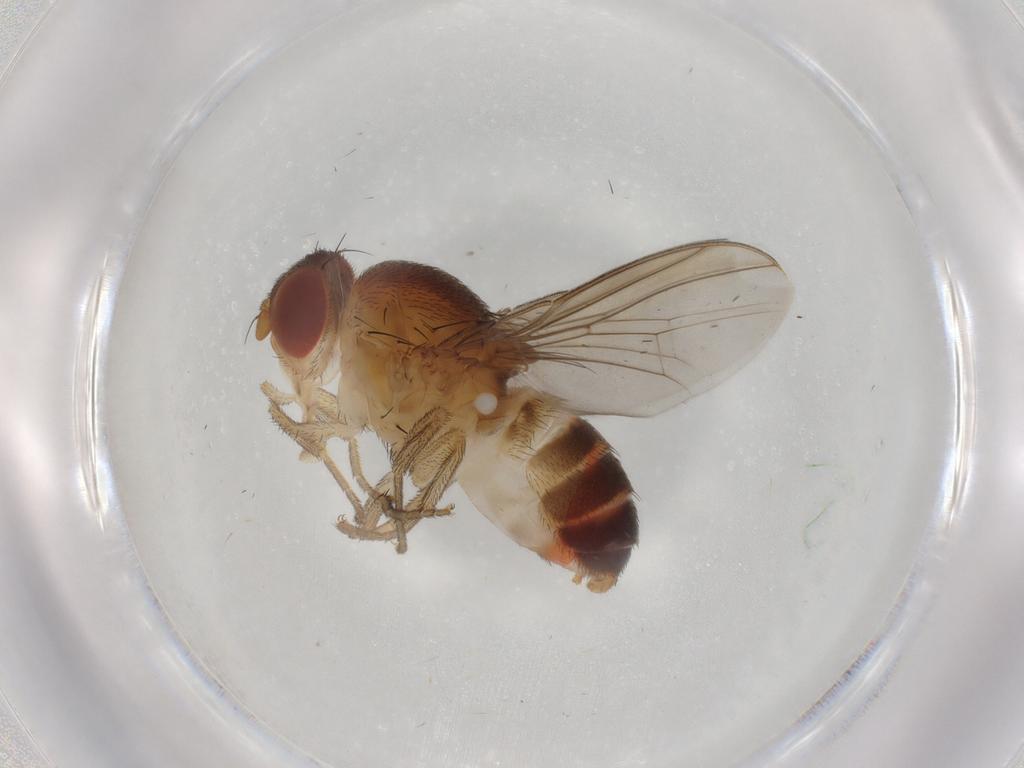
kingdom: Animalia
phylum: Arthropoda
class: Insecta
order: Diptera
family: Drosophilidae
